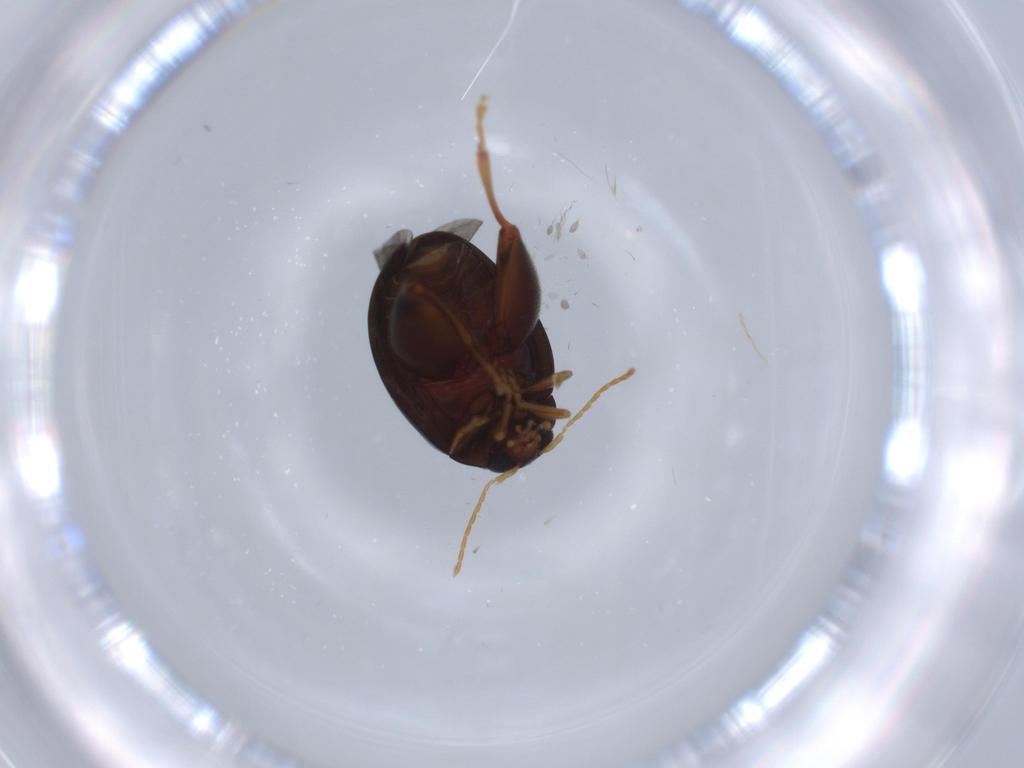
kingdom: Animalia
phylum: Arthropoda
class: Insecta
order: Coleoptera
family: Chrysomelidae
